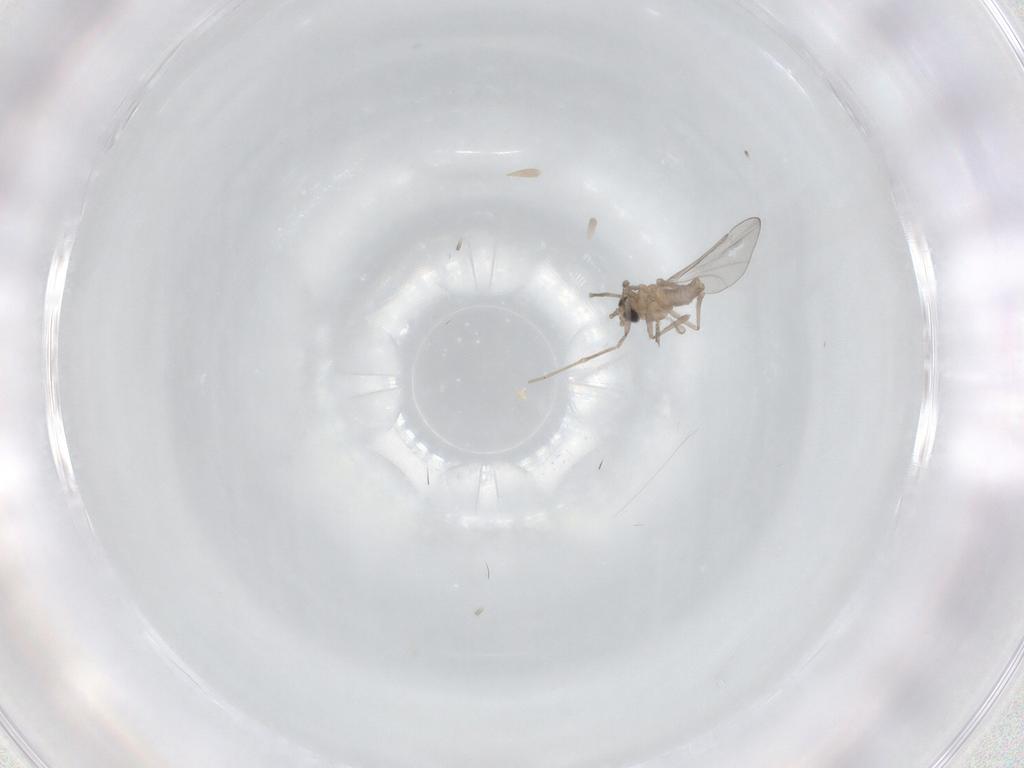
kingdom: Animalia
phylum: Arthropoda
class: Insecta
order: Diptera
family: Cecidomyiidae
